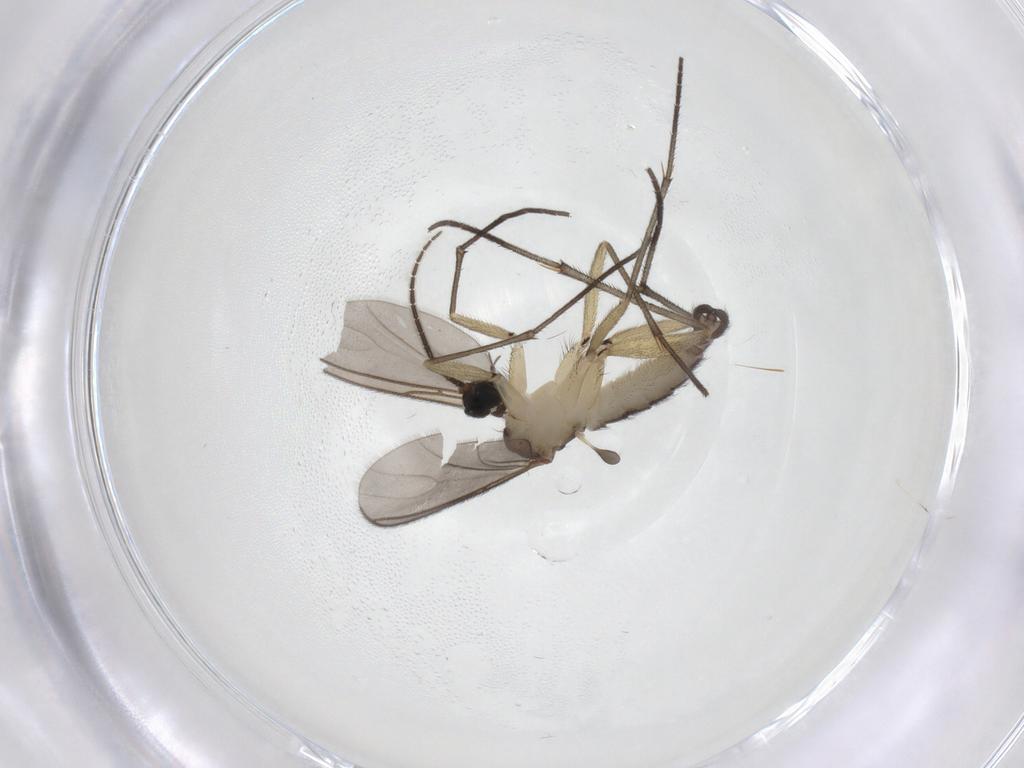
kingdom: Animalia
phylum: Arthropoda
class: Insecta
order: Diptera
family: Sciaridae
